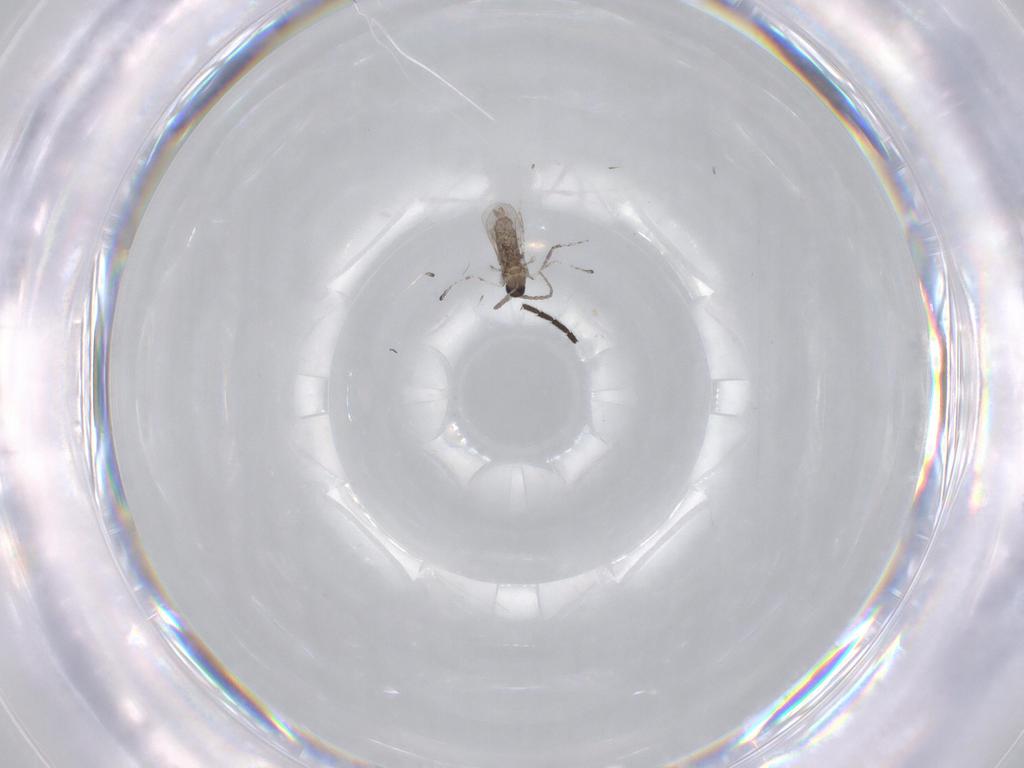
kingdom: Animalia
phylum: Arthropoda
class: Insecta
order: Diptera
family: Cecidomyiidae
